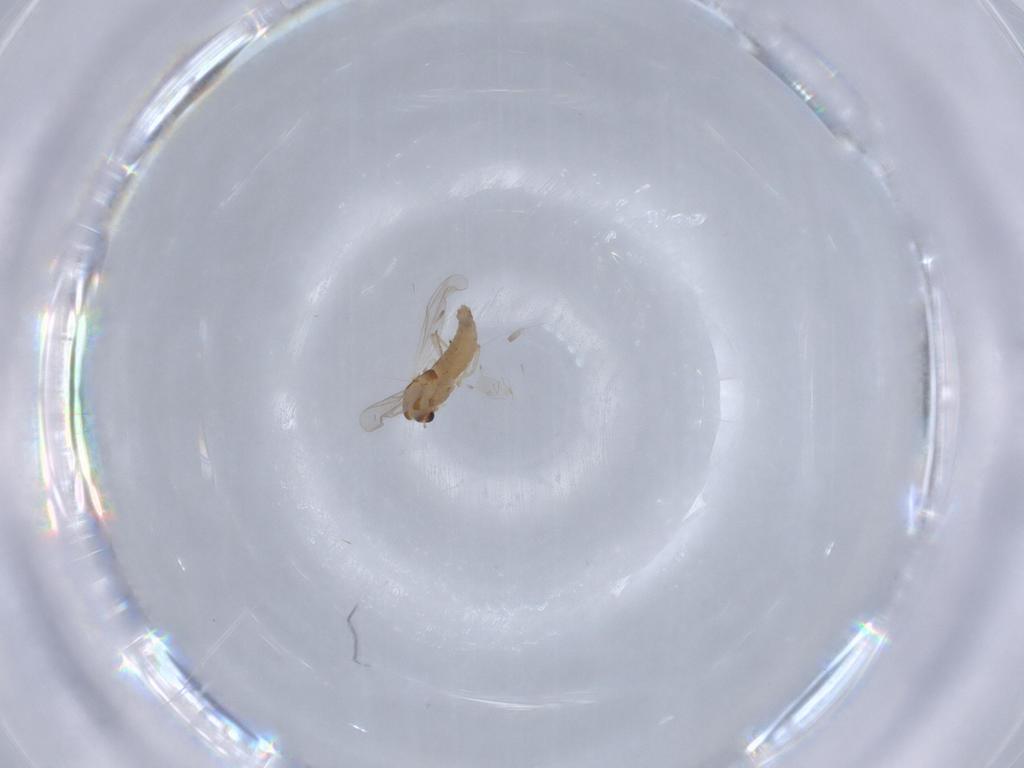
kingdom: Animalia
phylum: Arthropoda
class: Insecta
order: Diptera
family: Chironomidae
